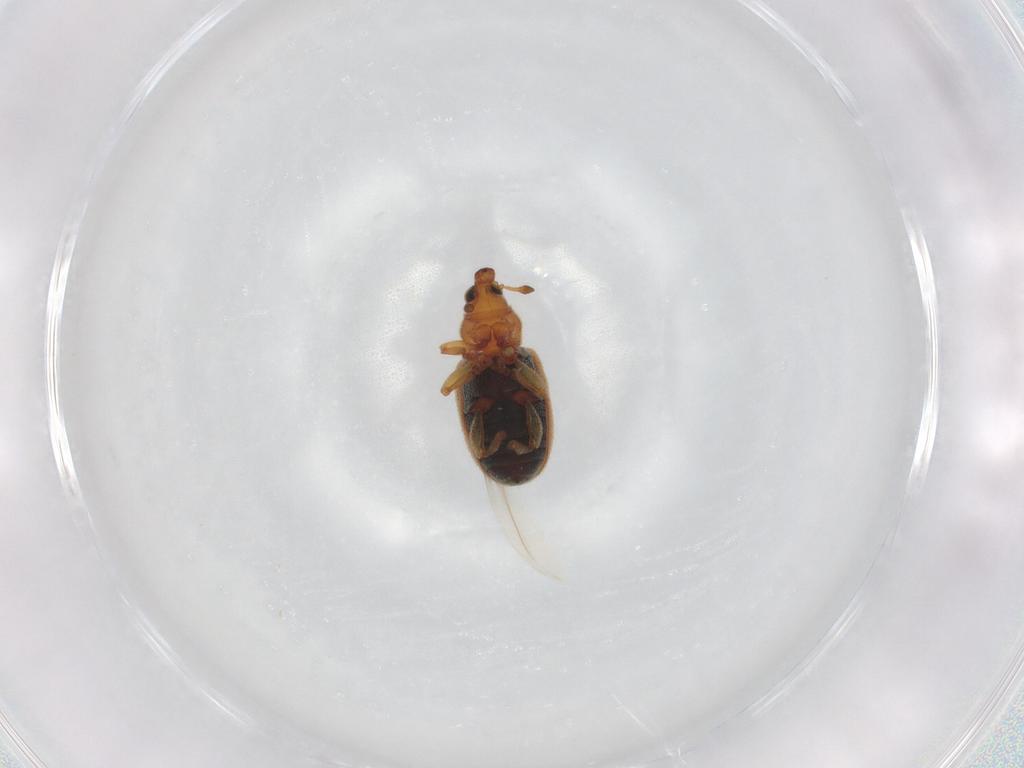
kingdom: Animalia
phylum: Arthropoda
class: Insecta
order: Coleoptera
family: Curculionidae
